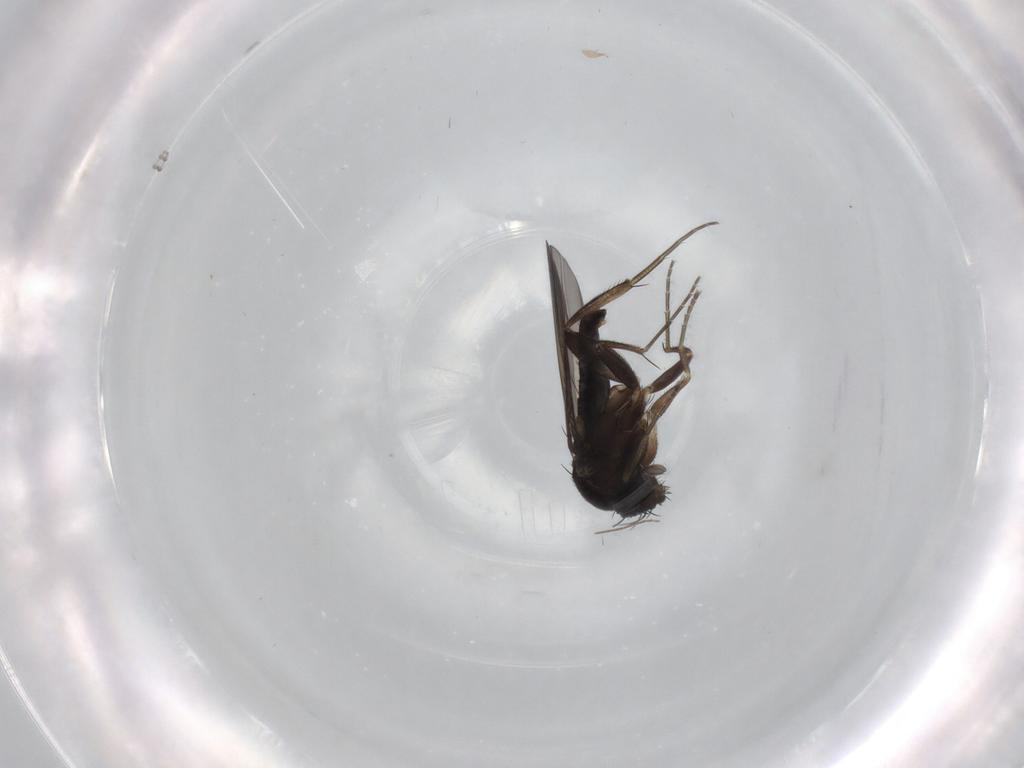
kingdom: Animalia
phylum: Arthropoda
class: Insecta
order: Diptera
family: Phoridae
